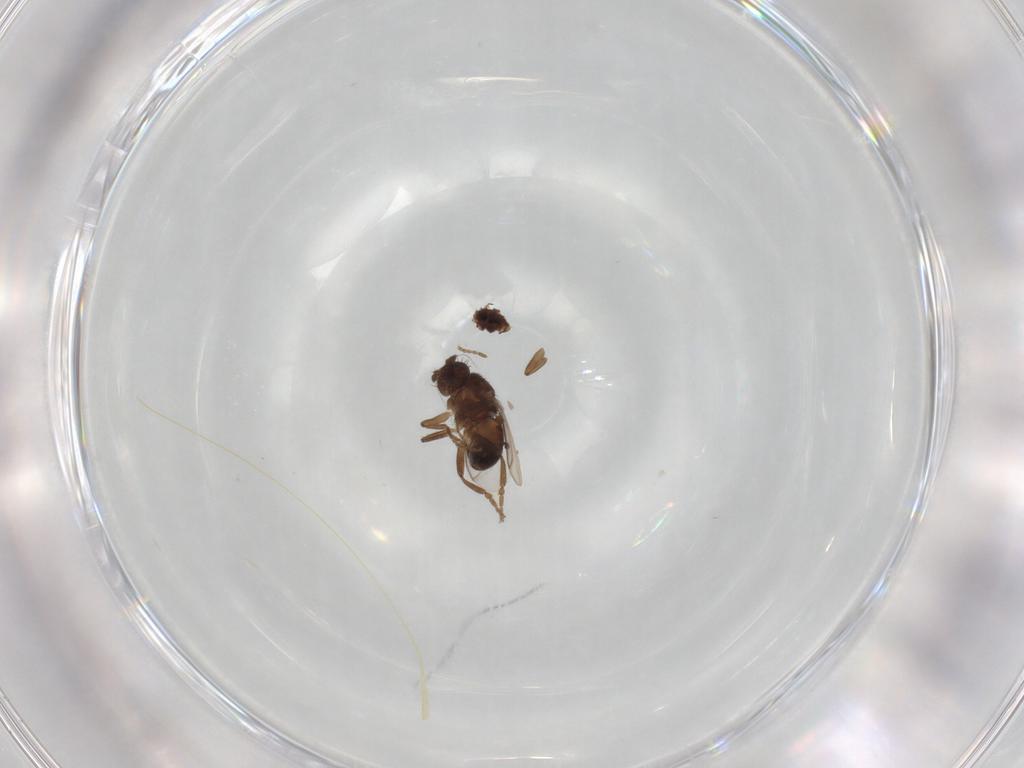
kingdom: Animalia
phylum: Arthropoda
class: Insecta
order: Diptera
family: Sphaeroceridae
